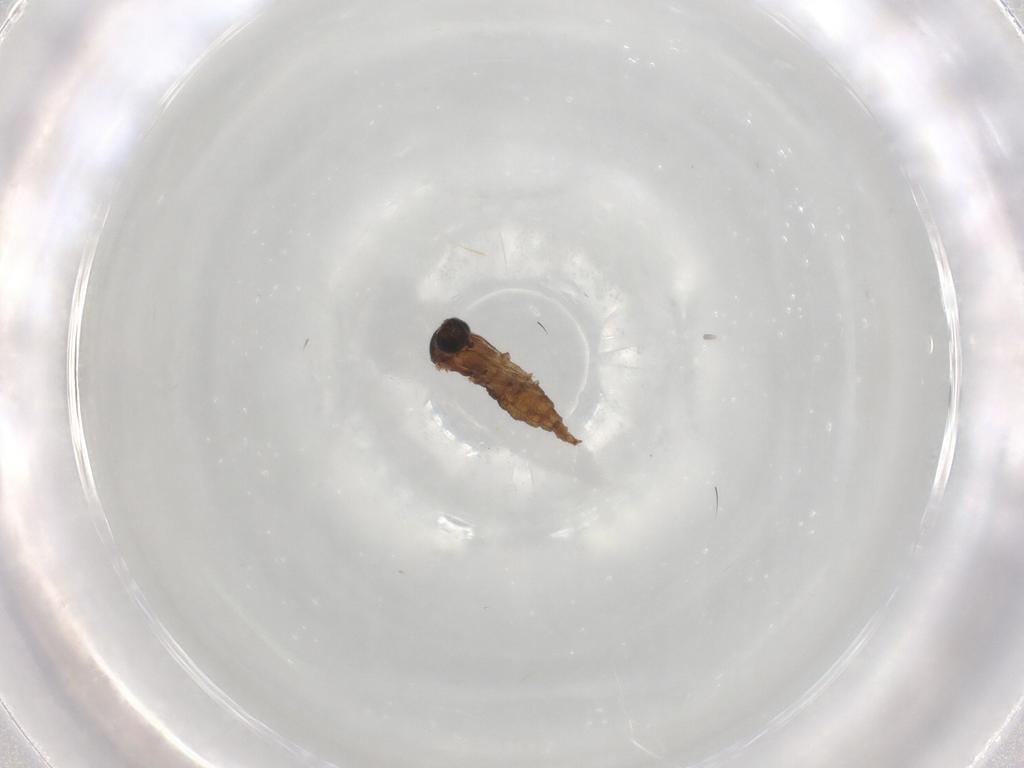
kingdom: Animalia
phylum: Arthropoda
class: Insecta
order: Diptera
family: Sciaridae
